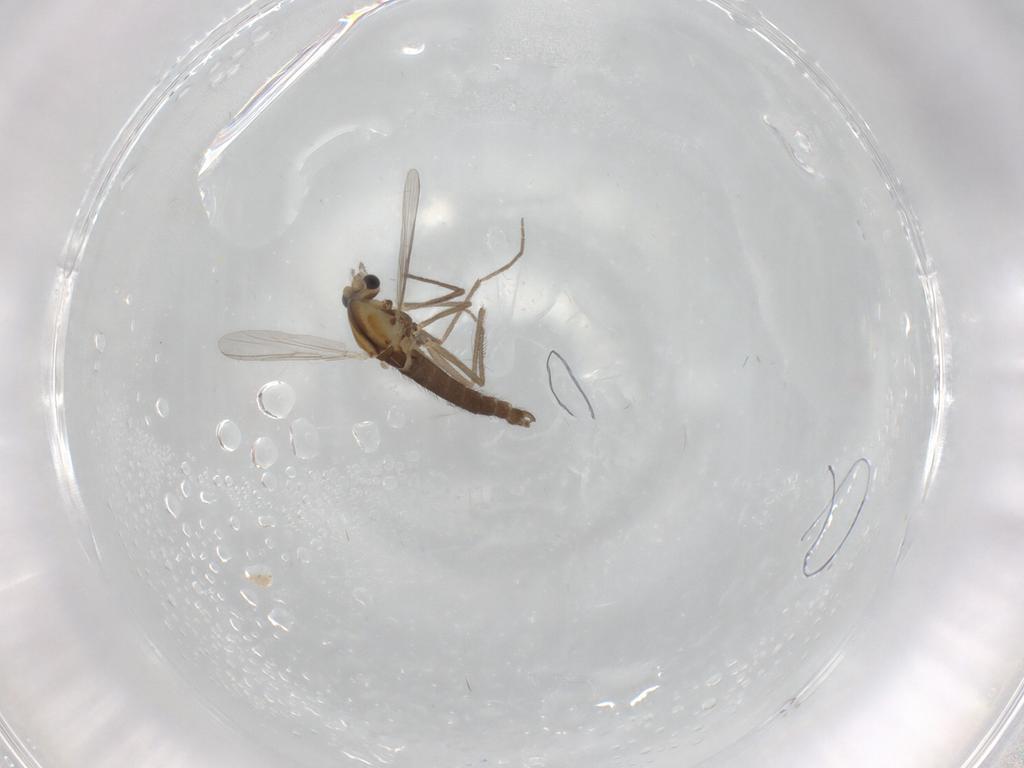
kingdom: Animalia
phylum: Arthropoda
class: Insecta
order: Diptera
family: Chironomidae
